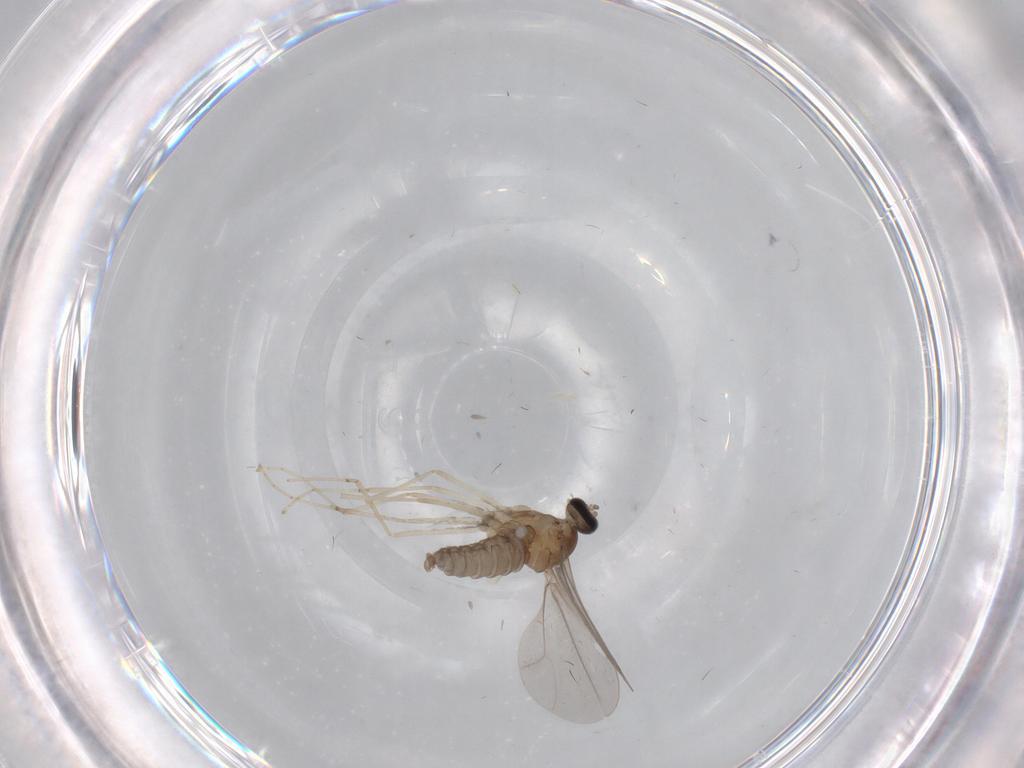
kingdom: Animalia
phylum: Arthropoda
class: Insecta
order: Diptera
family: Cecidomyiidae
